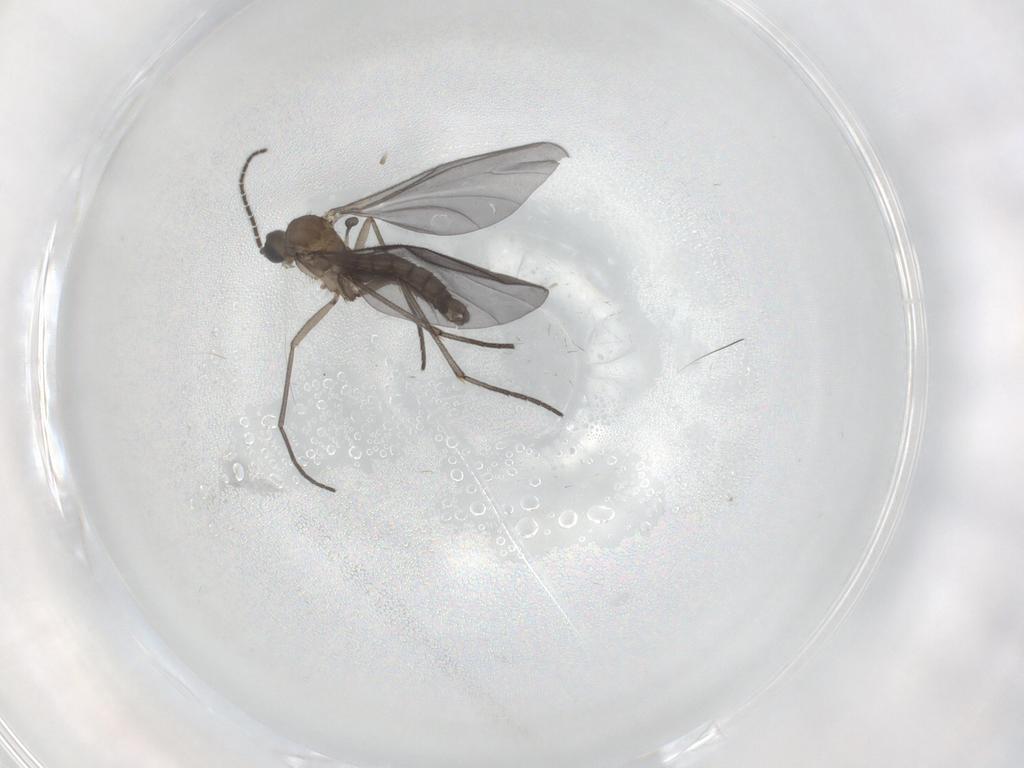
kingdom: Animalia
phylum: Arthropoda
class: Insecta
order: Diptera
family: Sciaridae
